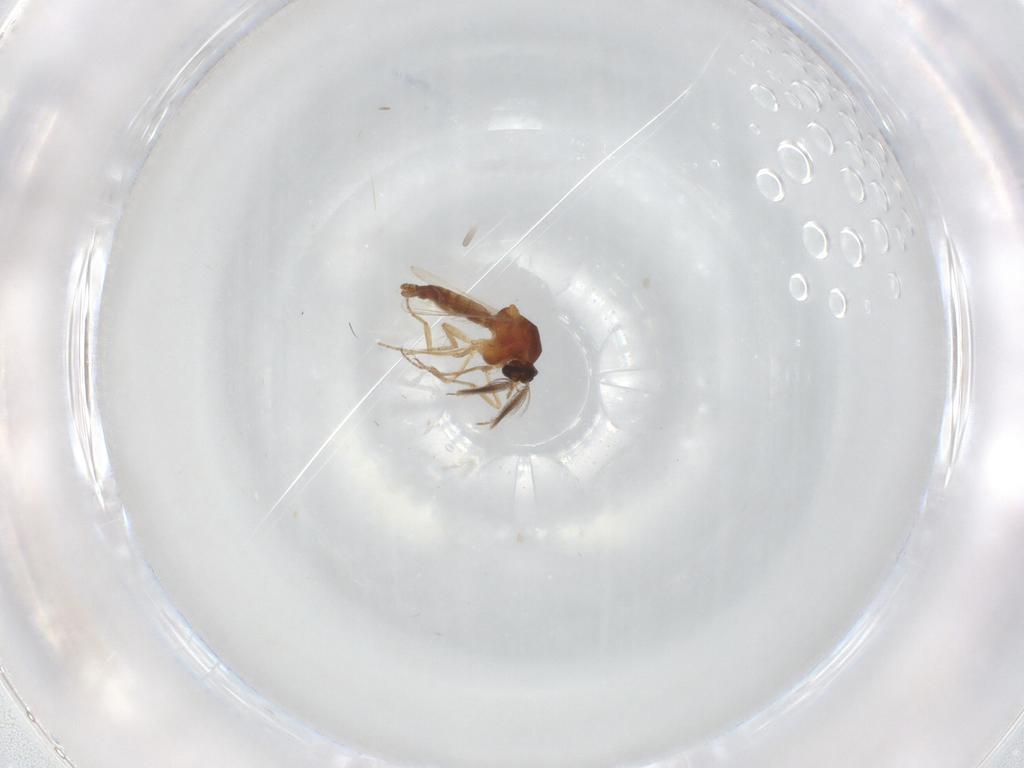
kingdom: Animalia
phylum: Arthropoda
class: Insecta
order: Diptera
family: Ceratopogonidae
